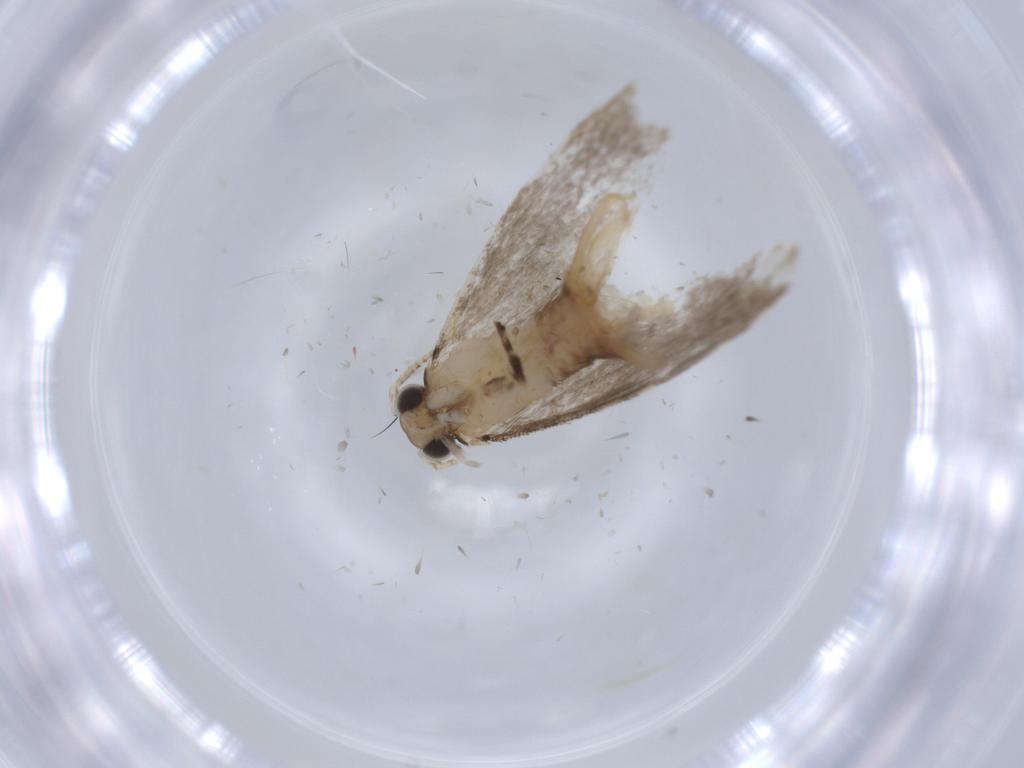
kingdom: Animalia
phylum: Arthropoda
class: Insecta
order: Lepidoptera
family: Tineidae
